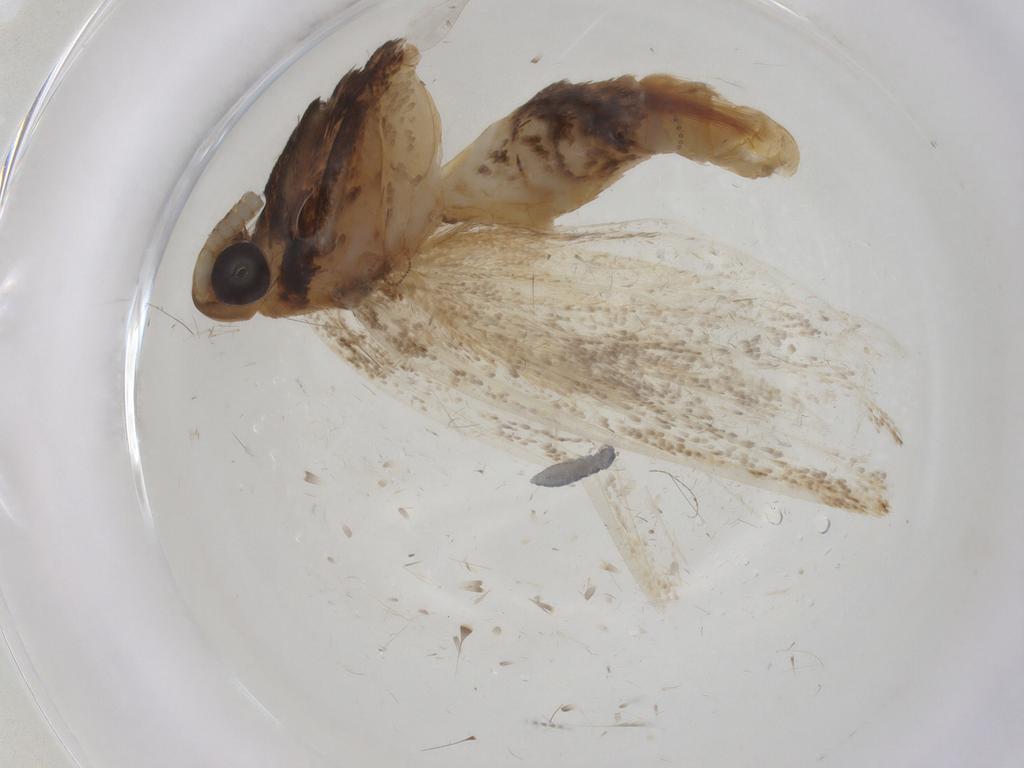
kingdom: Animalia
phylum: Arthropoda
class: Insecta
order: Lepidoptera
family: Lecithoceridae
